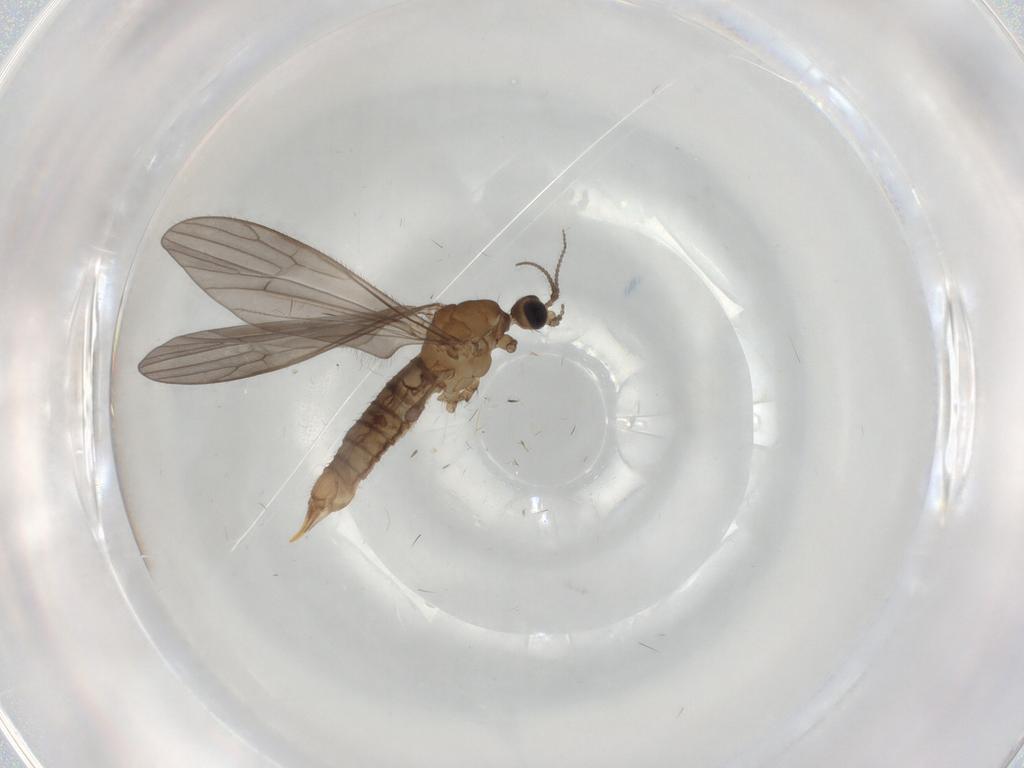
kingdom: Animalia
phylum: Arthropoda
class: Insecta
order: Diptera
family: Limoniidae
